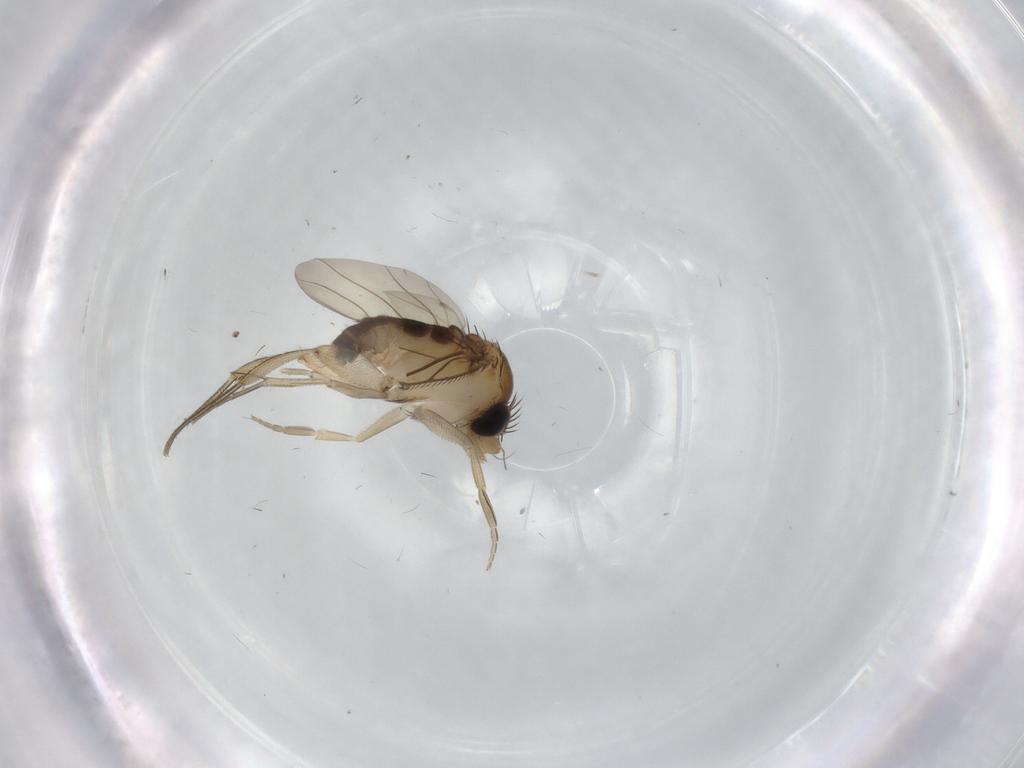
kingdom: Animalia
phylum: Arthropoda
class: Insecta
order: Diptera
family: Phoridae
